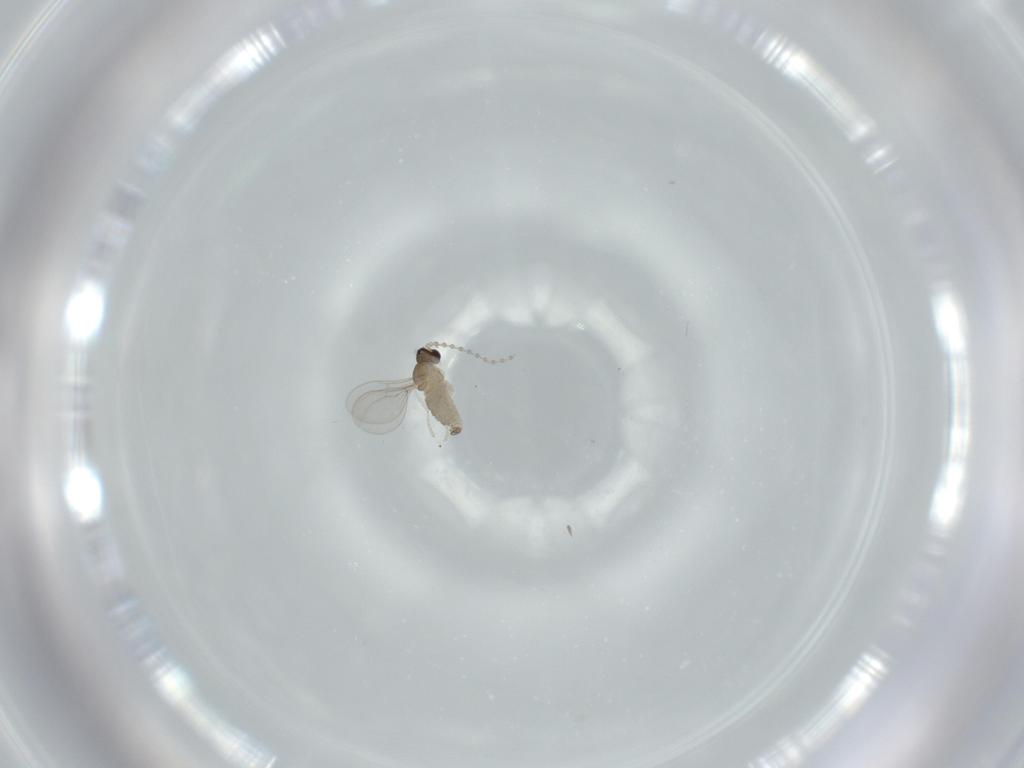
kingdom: Animalia
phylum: Arthropoda
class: Insecta
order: Diptera
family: Cecidomyiidae
